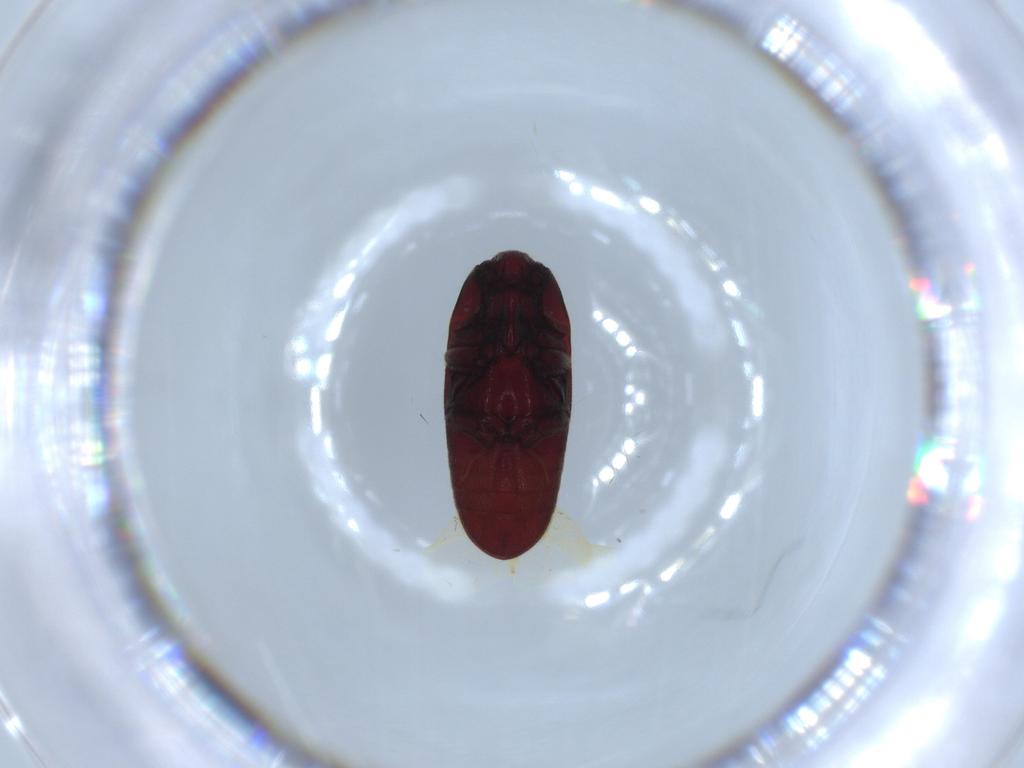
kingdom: Animalia
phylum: Arthropoda
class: Insecta
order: Coleoptera
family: Throscidae
